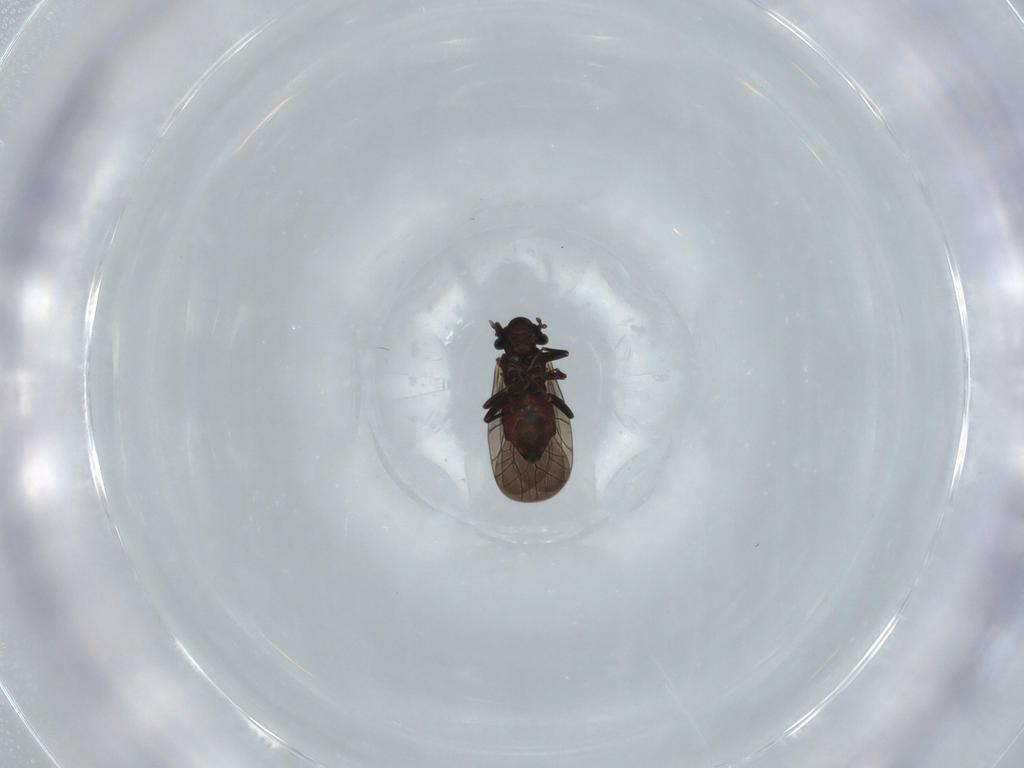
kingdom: Animalia
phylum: Arthropoda
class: Insecta
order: Psocodea
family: Lepidopsocidae
